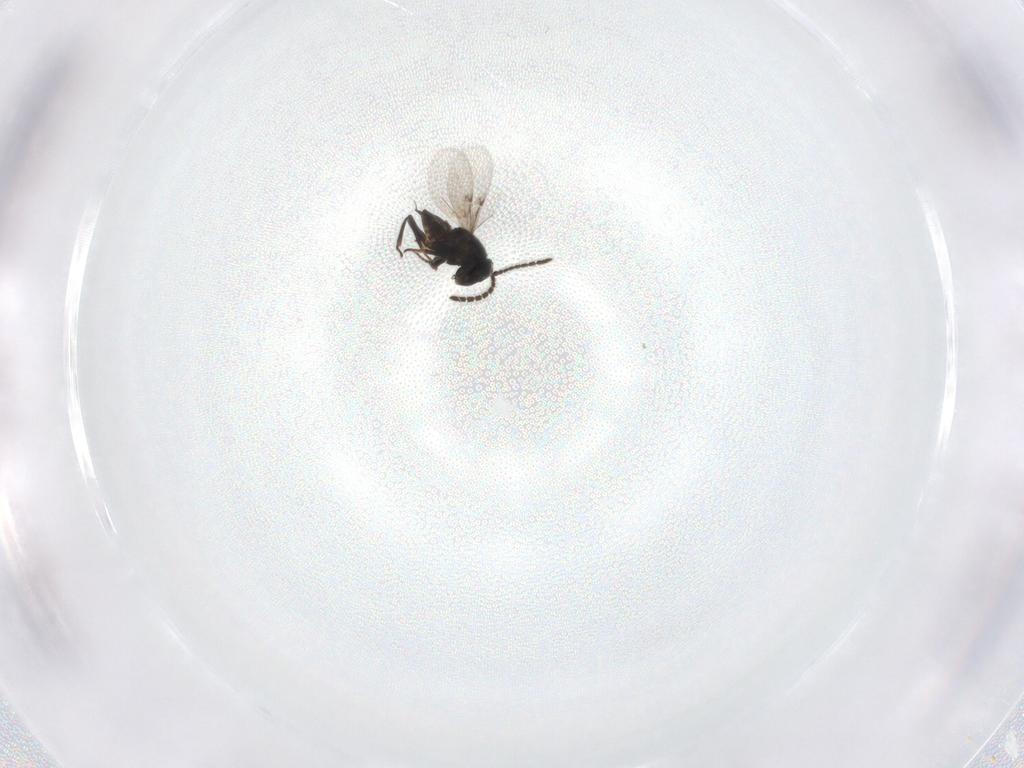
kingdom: Animalia
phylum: Arthropoda
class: Insecta
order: Hymenoptera
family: Encyrtidae
